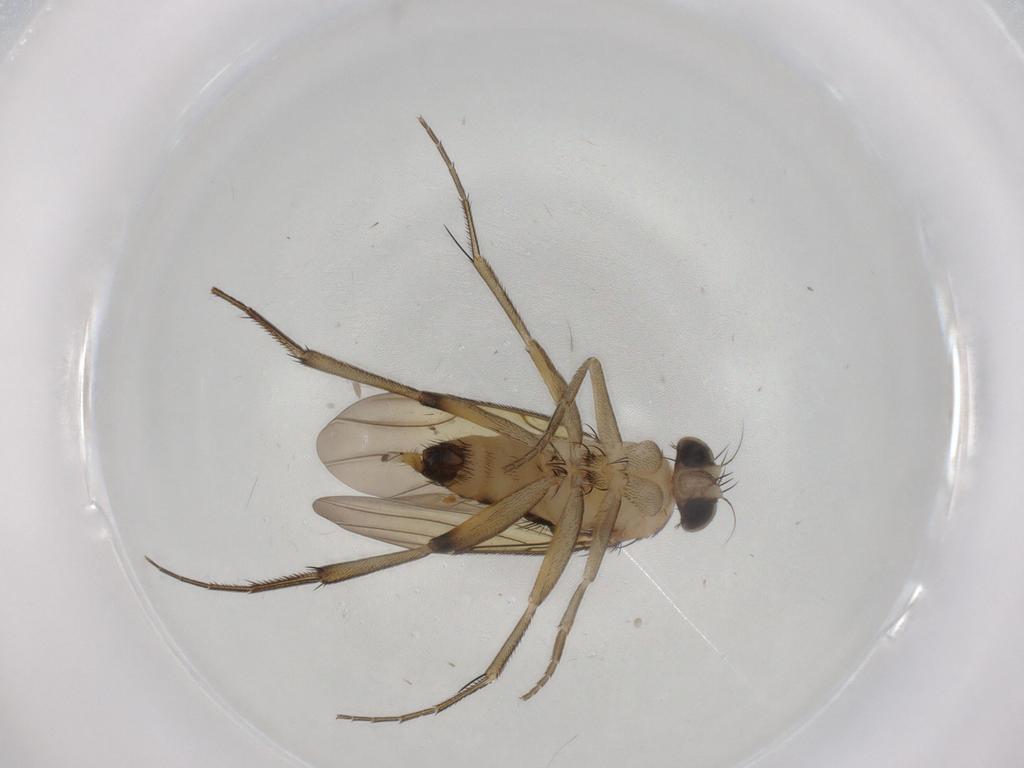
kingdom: Animalia
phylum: Arthropoda
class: Insecta
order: Diptera
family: Phoridae
